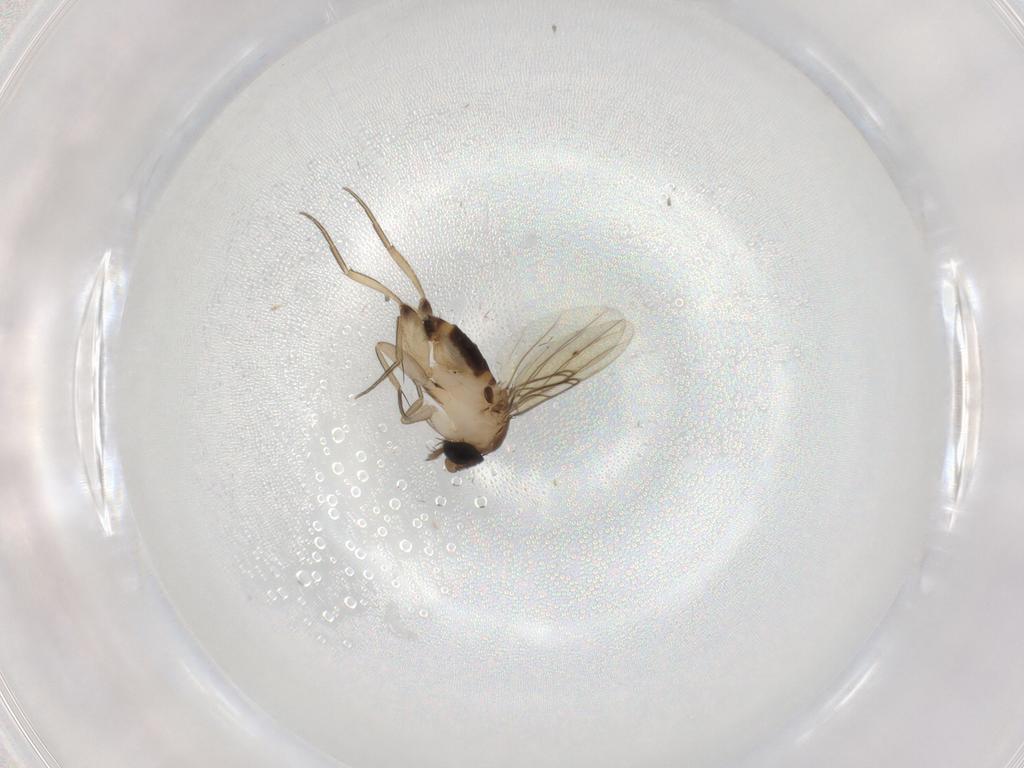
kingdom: Animalia
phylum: Arthropoda
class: Insecta
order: Diptera
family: Phoridae
